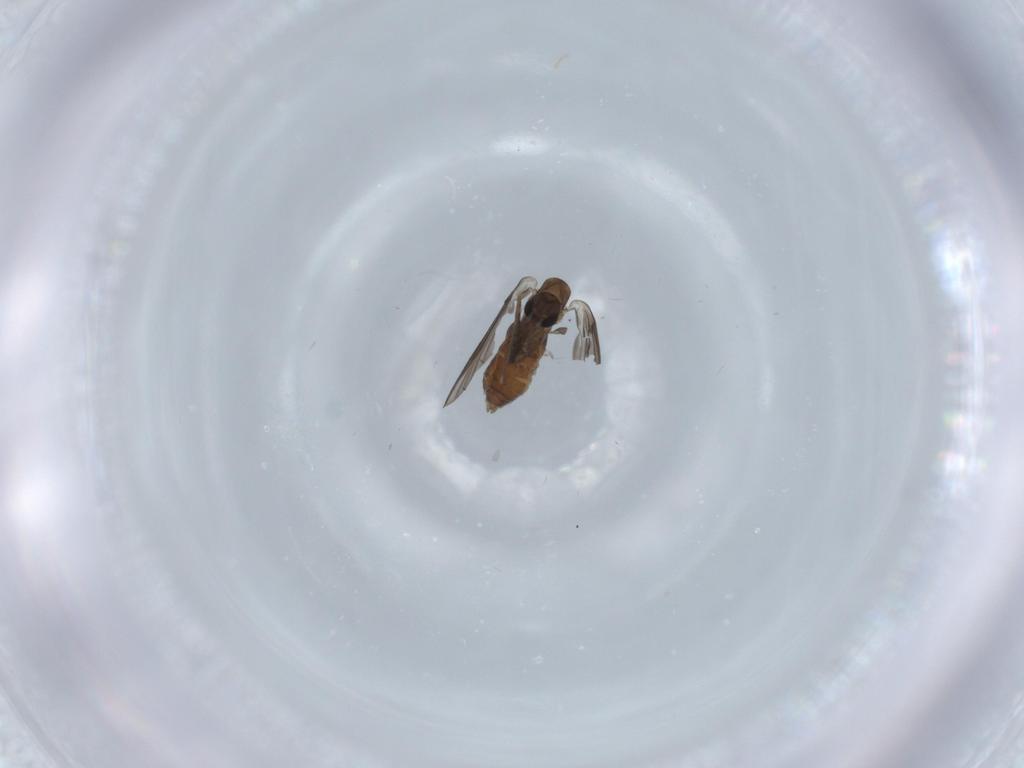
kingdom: Animalia
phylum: Arthropoda
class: Insecta
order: Diptera
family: Psychodidae
